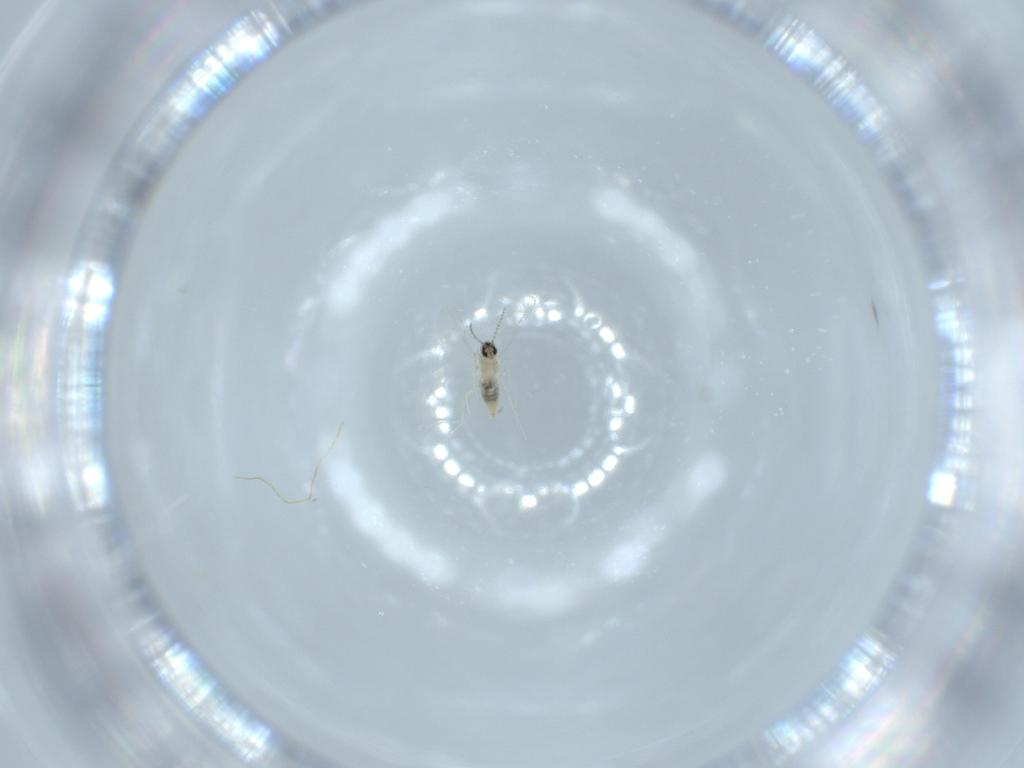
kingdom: Animalia
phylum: Arthropoda
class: Insecta
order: Diptera
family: Cecidomyiidae
